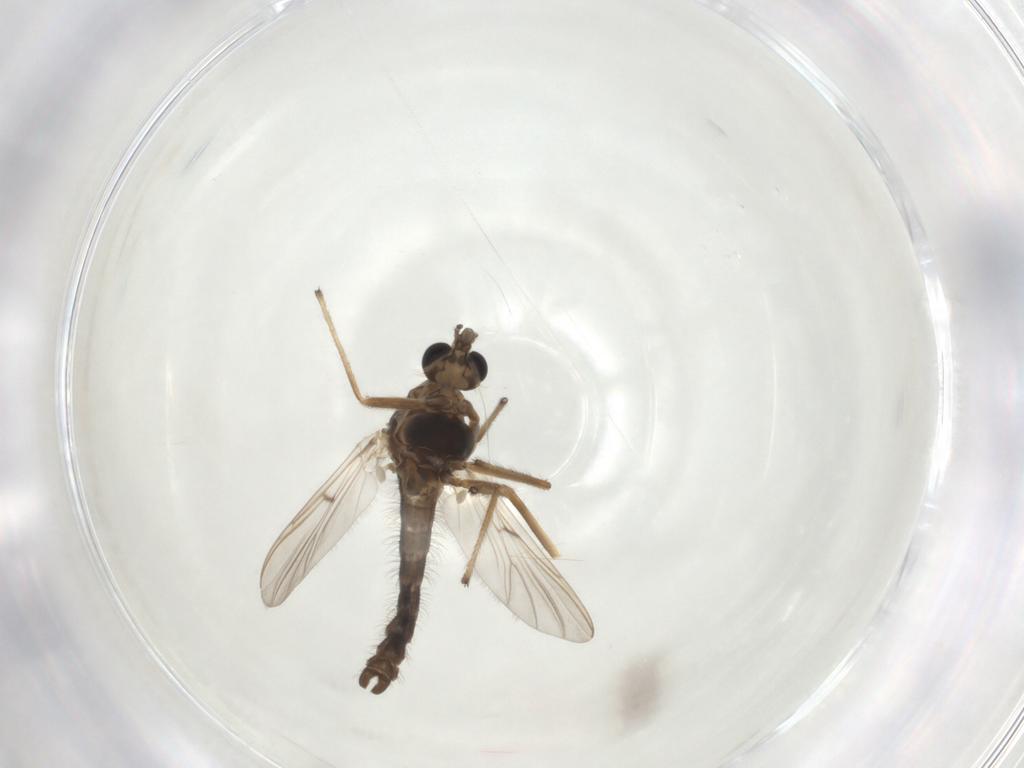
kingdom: Animalia
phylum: Arthropoda
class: Insecta
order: Diptera
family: Chironomidae
